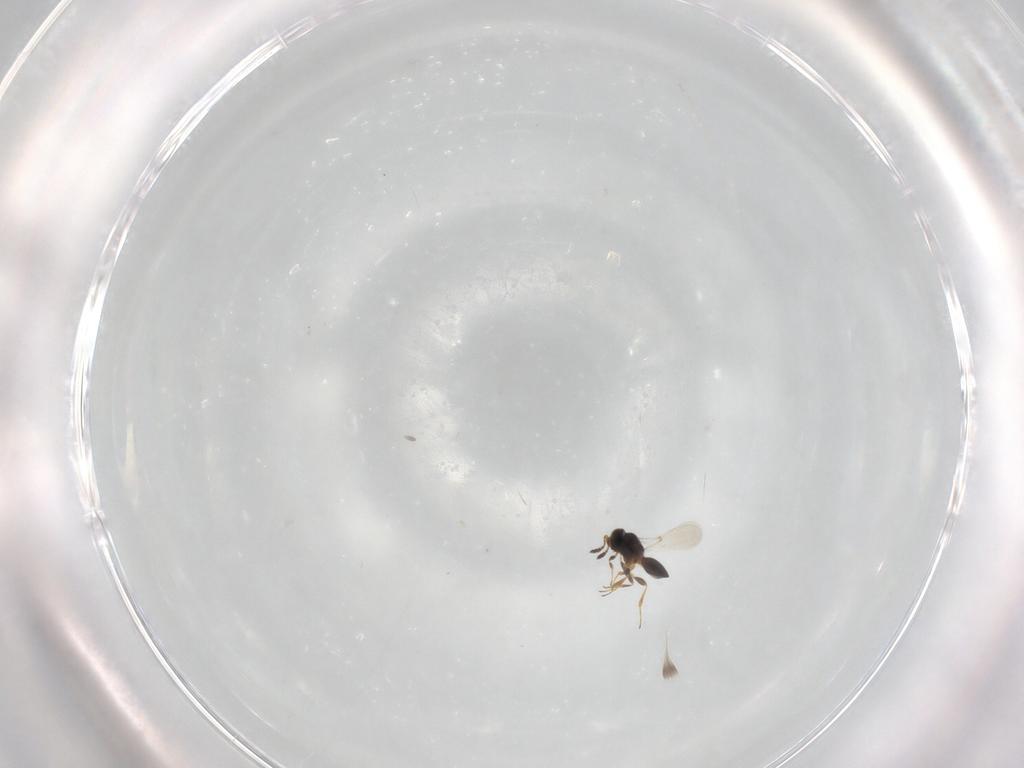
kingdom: Animalia
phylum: Arthropoda
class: Insecta
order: Hymenoptera
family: Platygastridae
